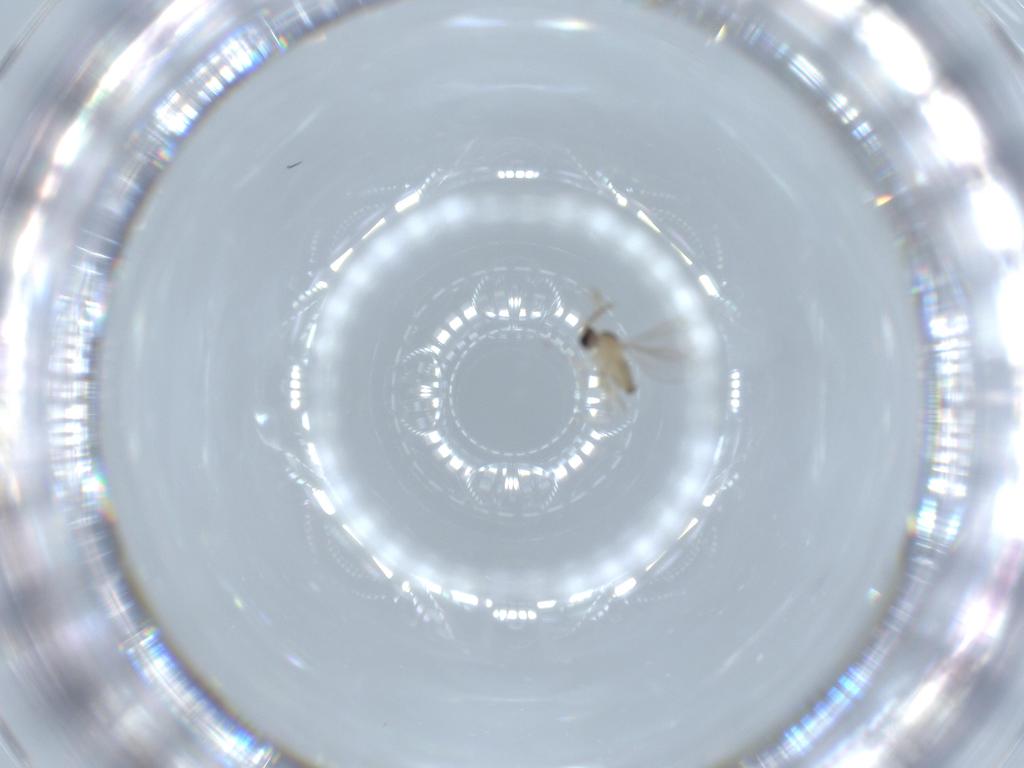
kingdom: Animalia
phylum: Arthropoda
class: Insecta
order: Diptera
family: Cecidomyiidae
